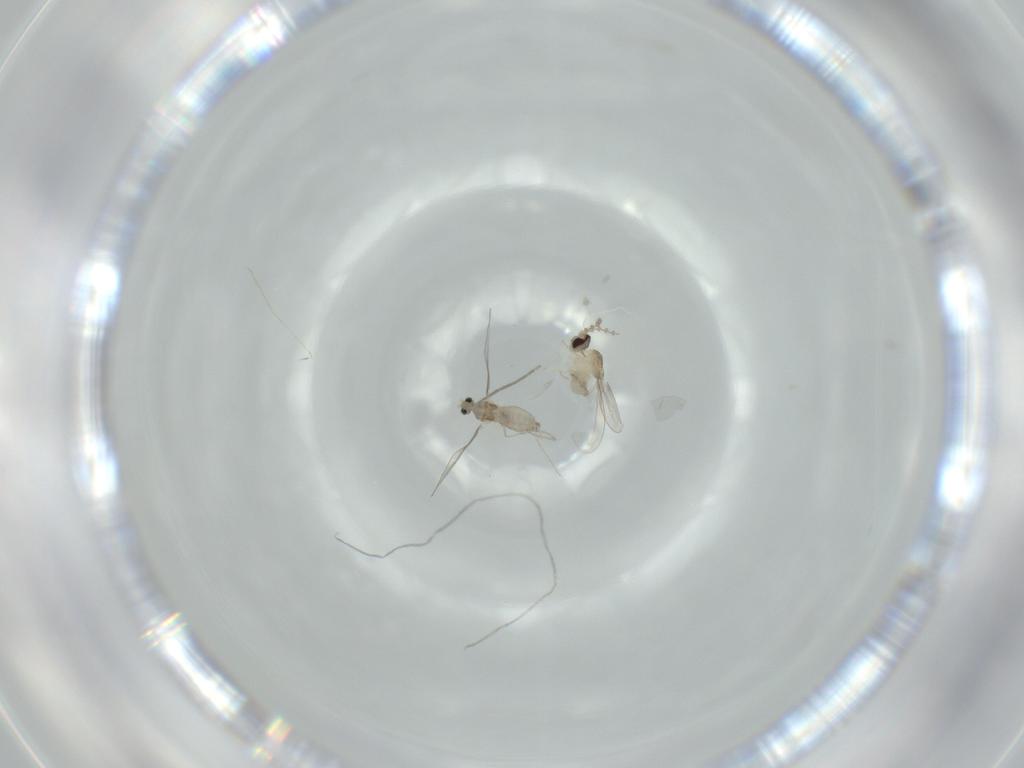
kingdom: Animalia
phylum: Arthropoda
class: Insecta
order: Diptera
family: Cecidomyiidae
